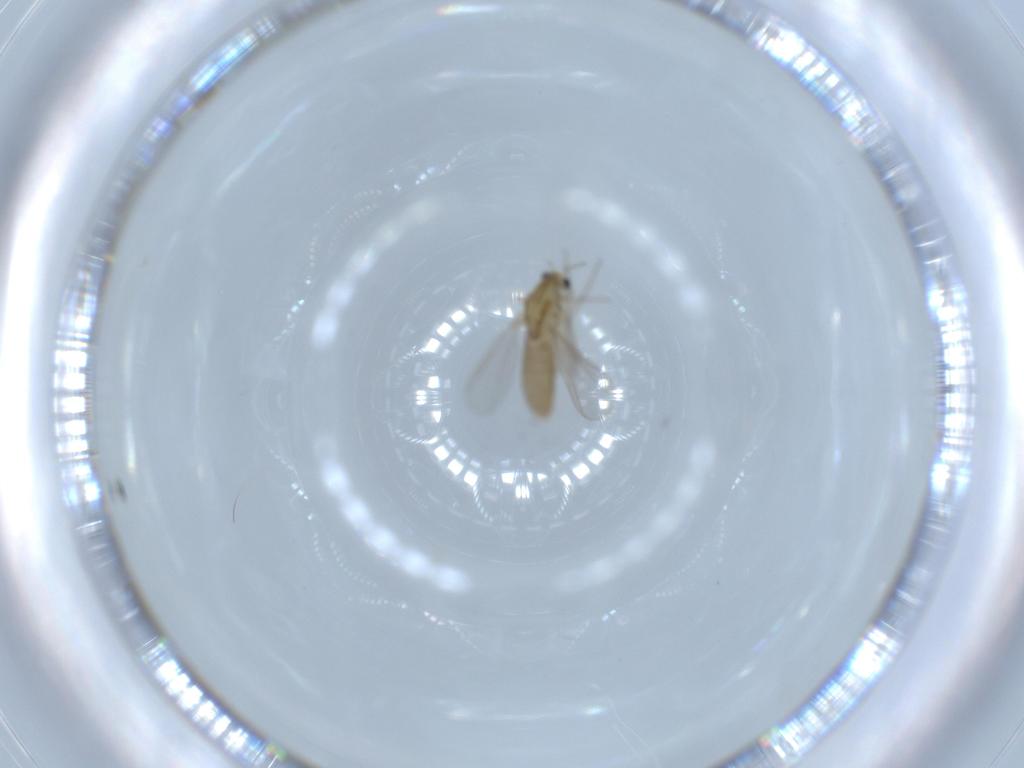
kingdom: Animalia
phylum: Arthropoda
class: Insecta
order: Diptera
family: Chironomidae
